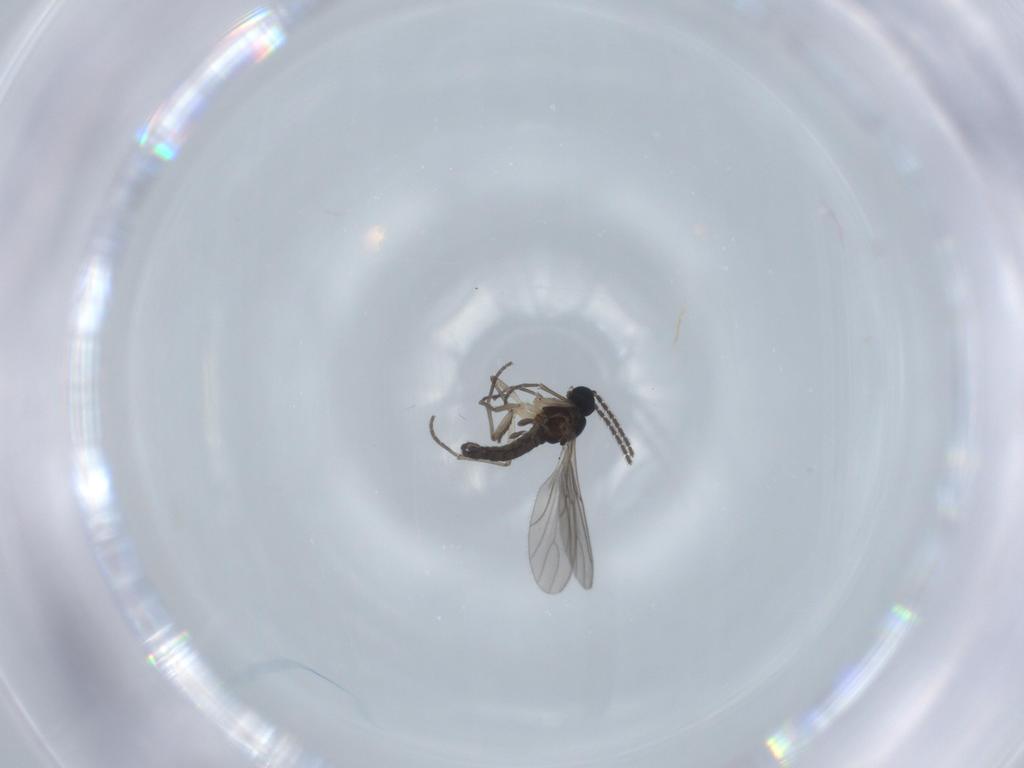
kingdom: Animalia
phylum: Arthropoda
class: Insecta
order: Diptera
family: Sciaridae
